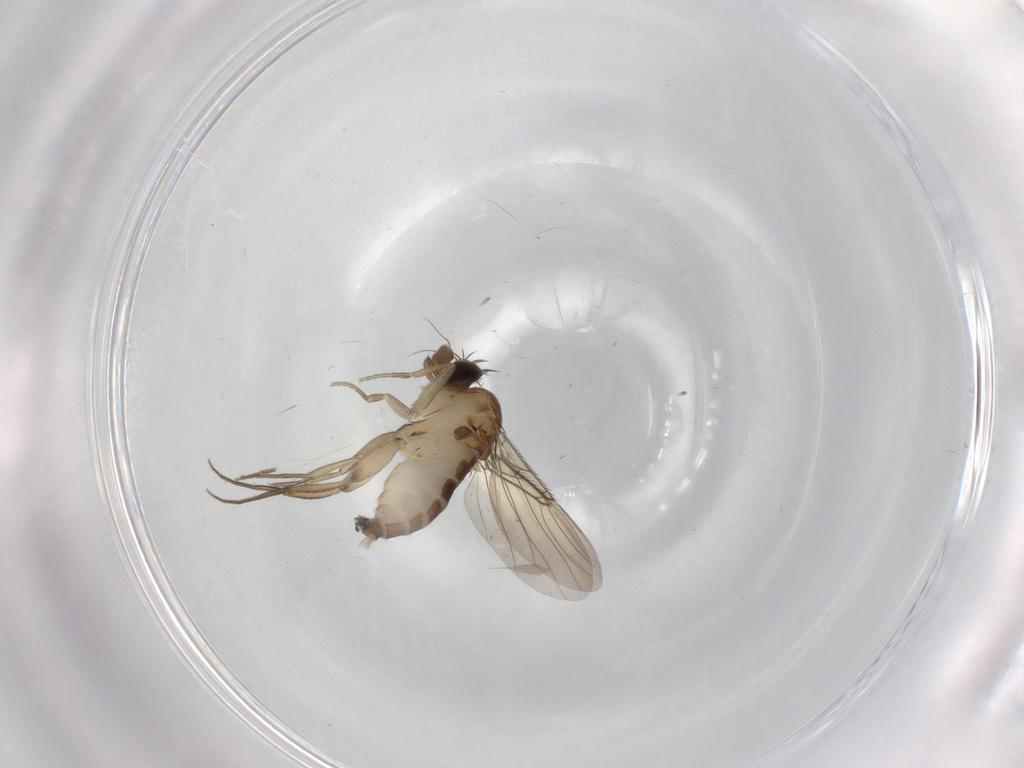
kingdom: Animalia
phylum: Arthropoda
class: Insecta
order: Diptera
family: Phoridae
